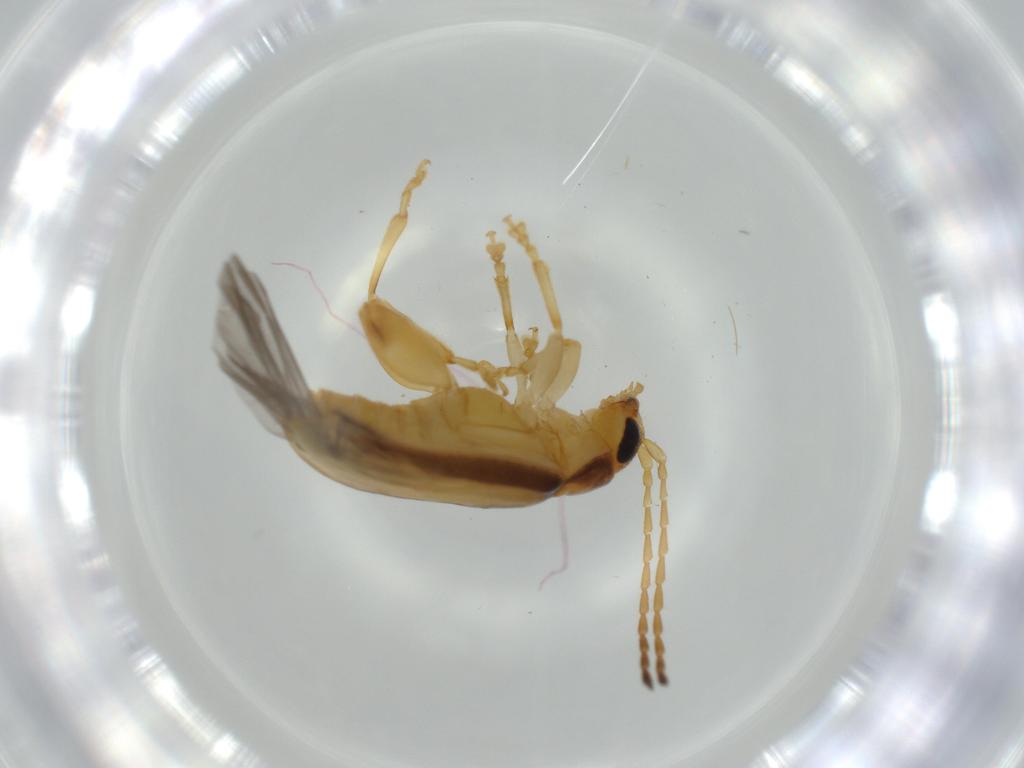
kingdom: Animalia
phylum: Arthropoda
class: Insecta
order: Coleoptera
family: Chrysomelidae
